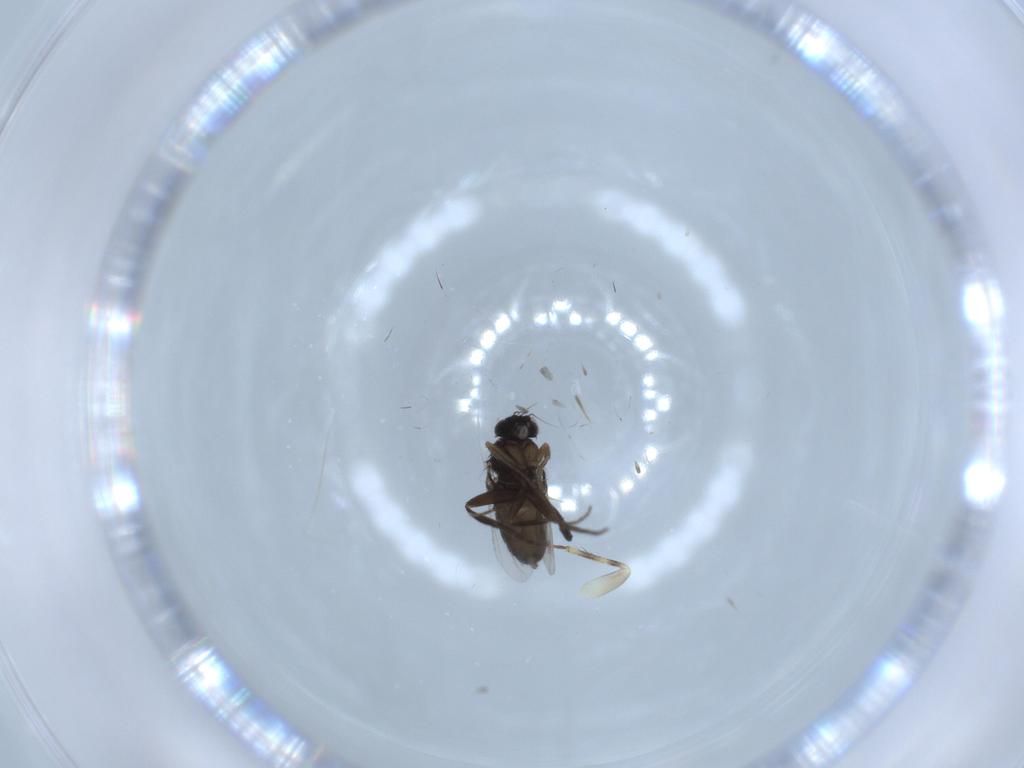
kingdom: Animalia
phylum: Arthropoda
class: Insecta
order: Diptera
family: Phoridae
